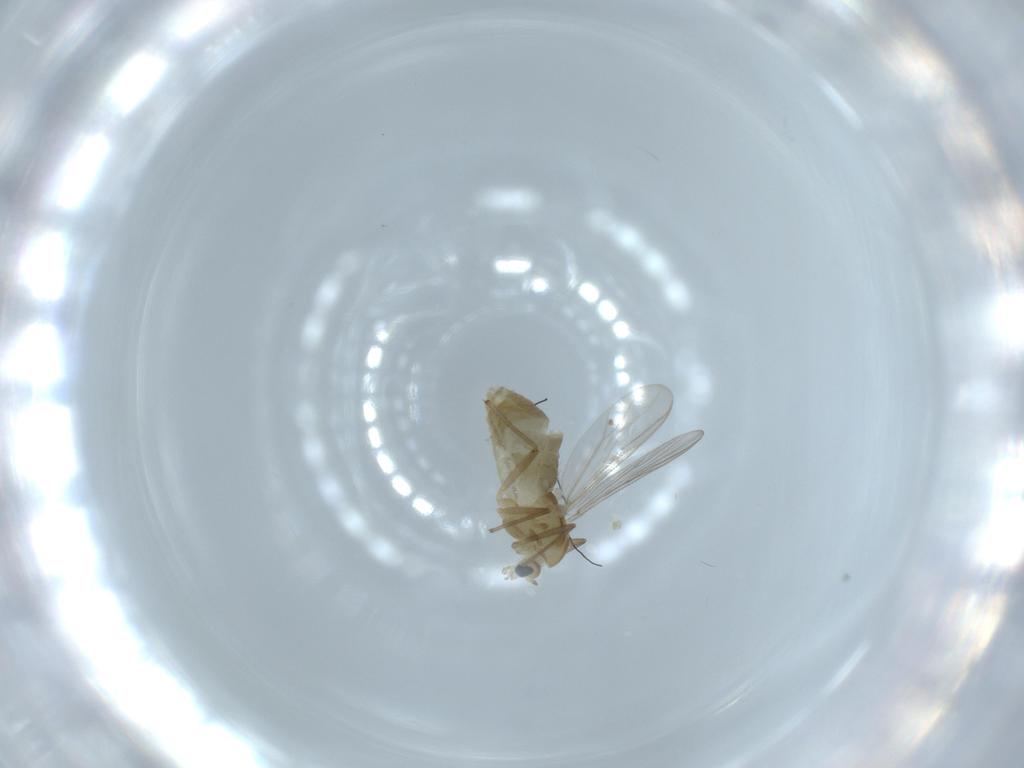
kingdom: Animalia
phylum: Arthropoda
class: Insecta
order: Diptera
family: Chironomidae
